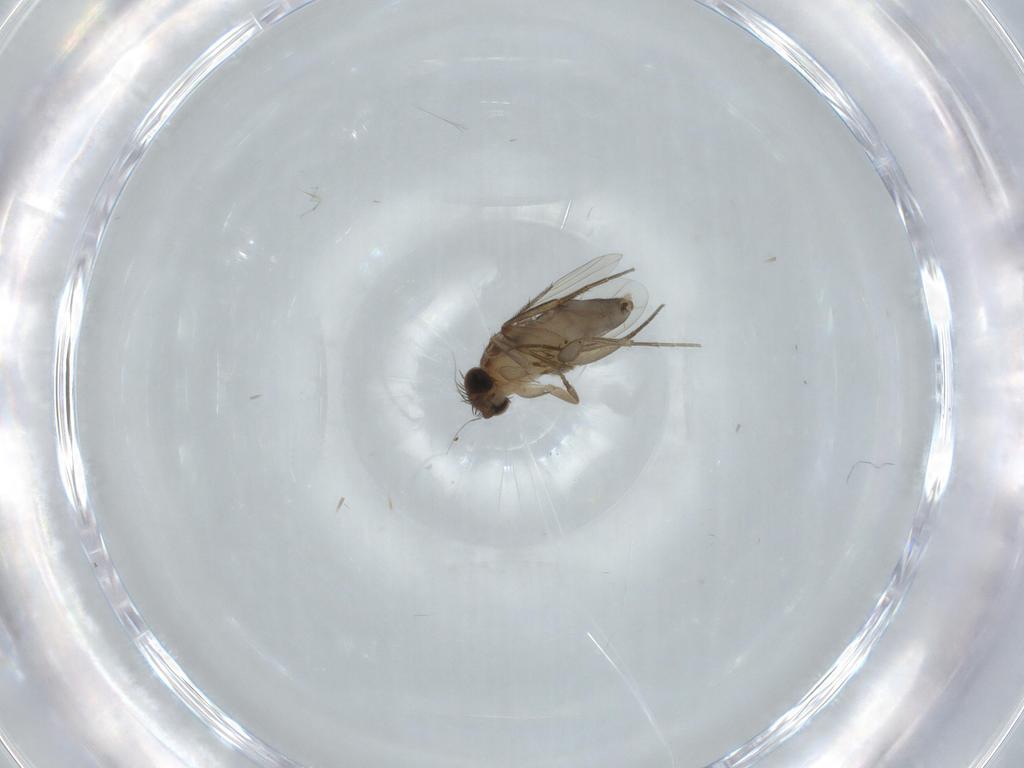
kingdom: Animalia
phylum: Arthropoda
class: Insecta
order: Diptera
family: Phoridae
